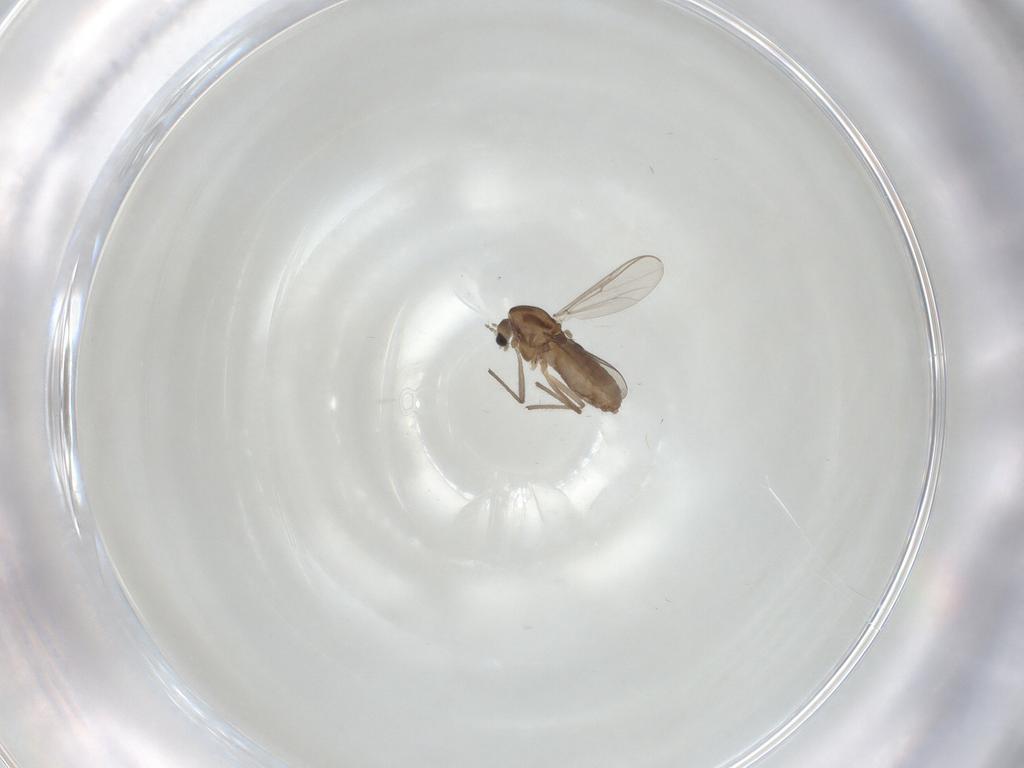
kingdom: Animalia
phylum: Arthropoda
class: Insecta
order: Diptera
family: Chironomidae
